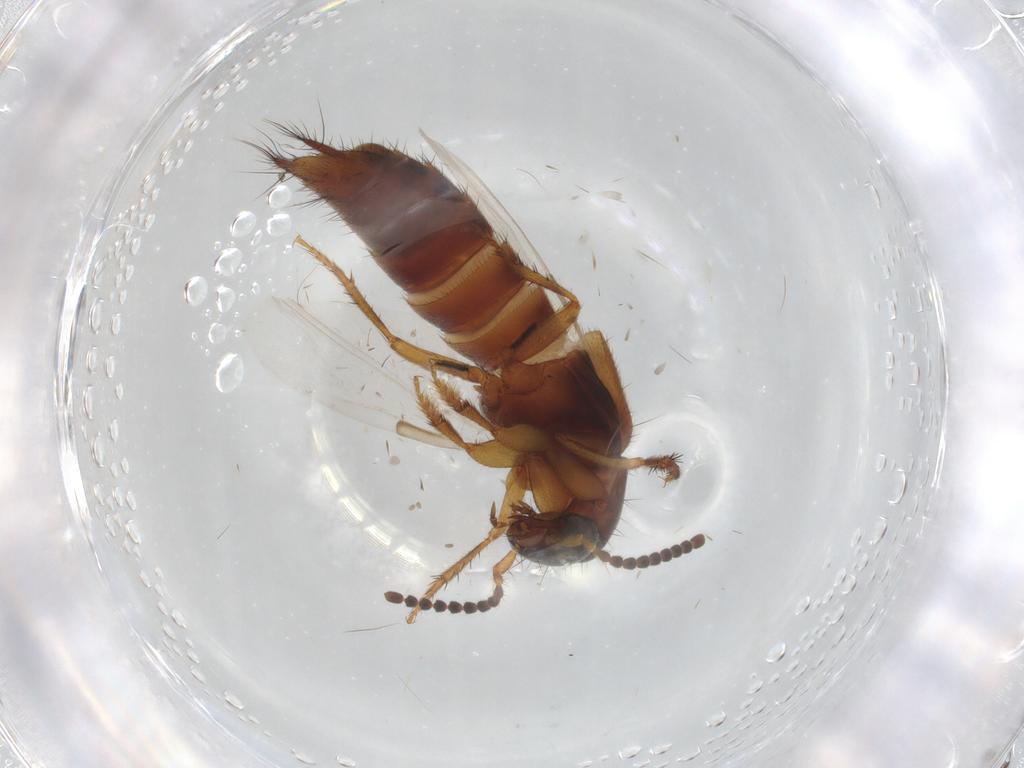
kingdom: Animalia
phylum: Arthropoda
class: Insecta
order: Coleoptera
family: Staphylinidae
